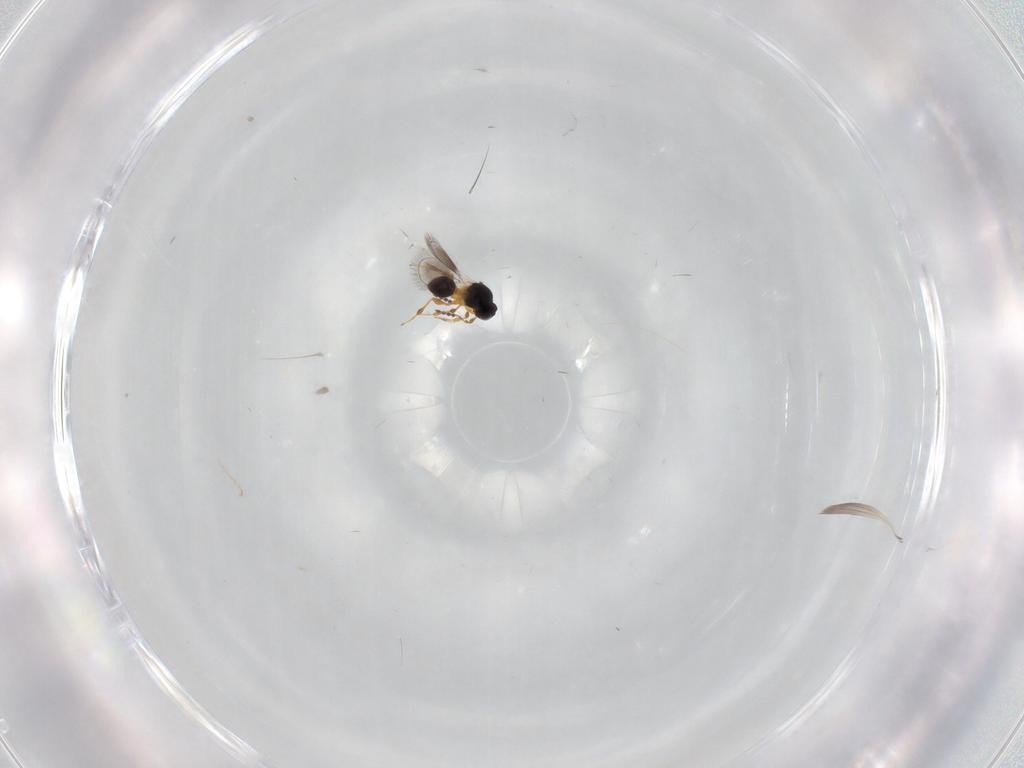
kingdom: Animalia
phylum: Arthropoda
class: Insecta
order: Hymenoptera
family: Platygastridae
